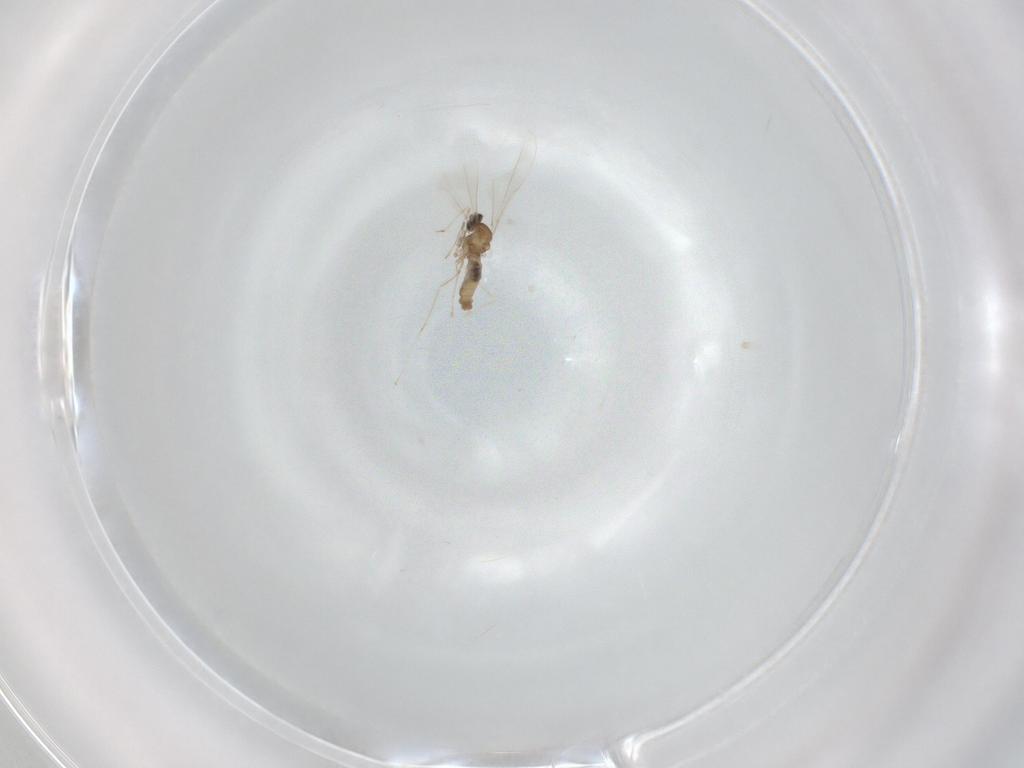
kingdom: Animalia
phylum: Arthropoda
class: Insecta
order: Diptera
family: Cecidomyiidae
